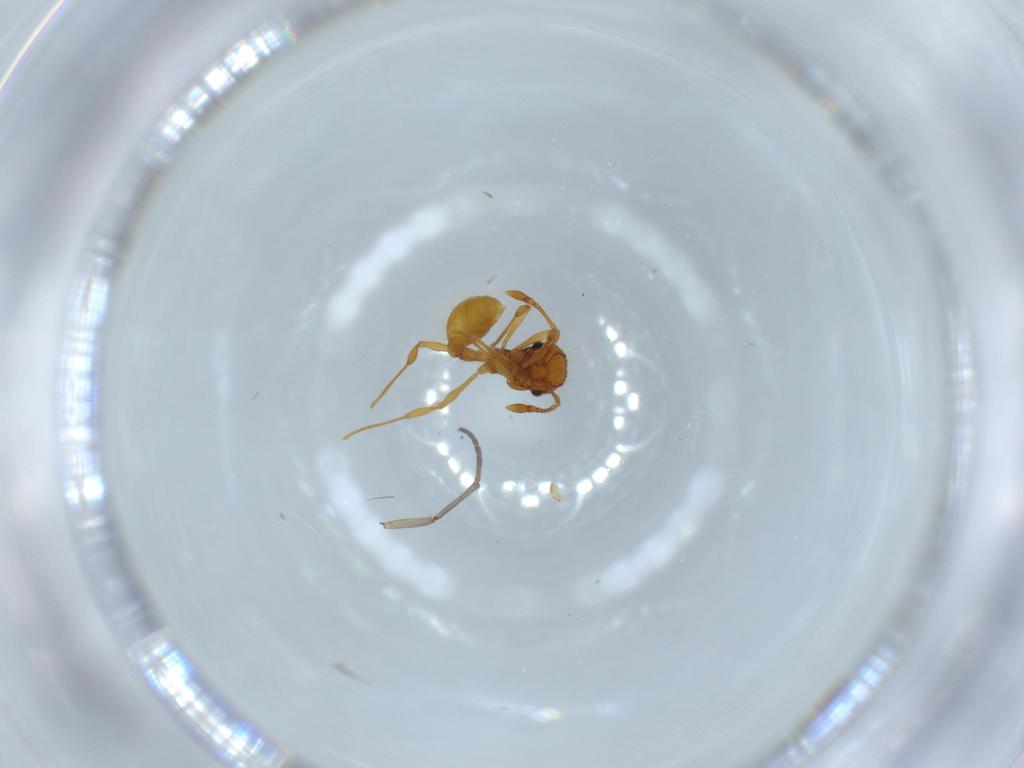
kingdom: Animalia
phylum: Arthropoda
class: Insecta
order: Hymenoptera
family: Formicidae
